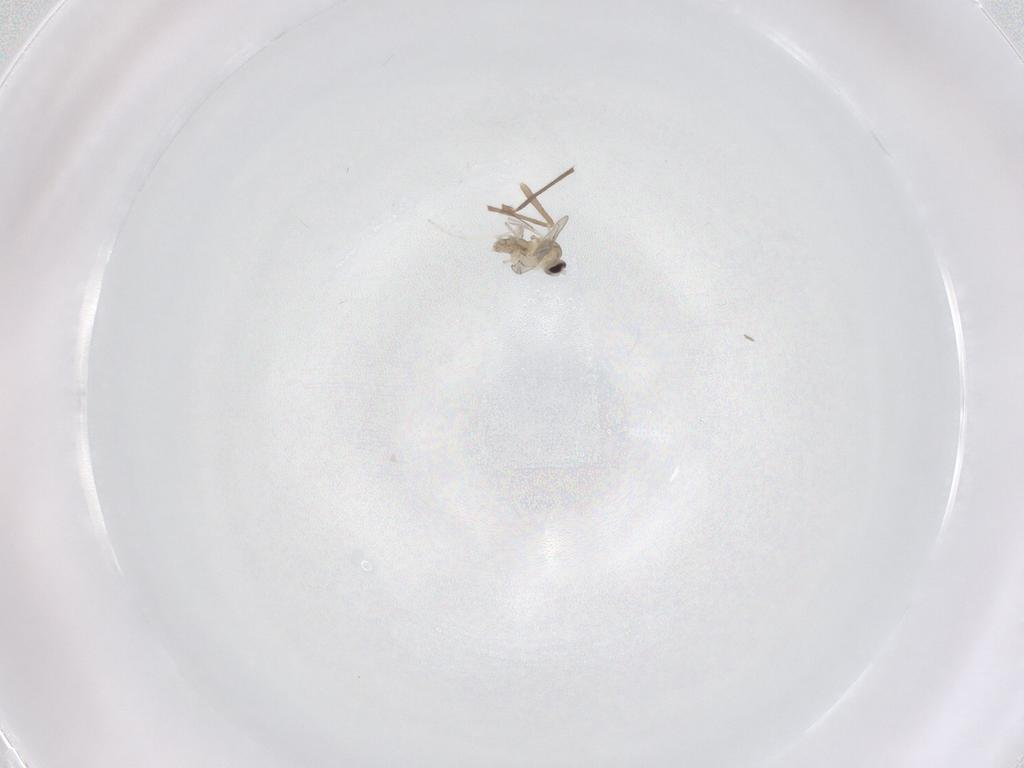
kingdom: Animalia
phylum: Arthropoda
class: Insecta
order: Diptera
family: Cecidomyiidae
